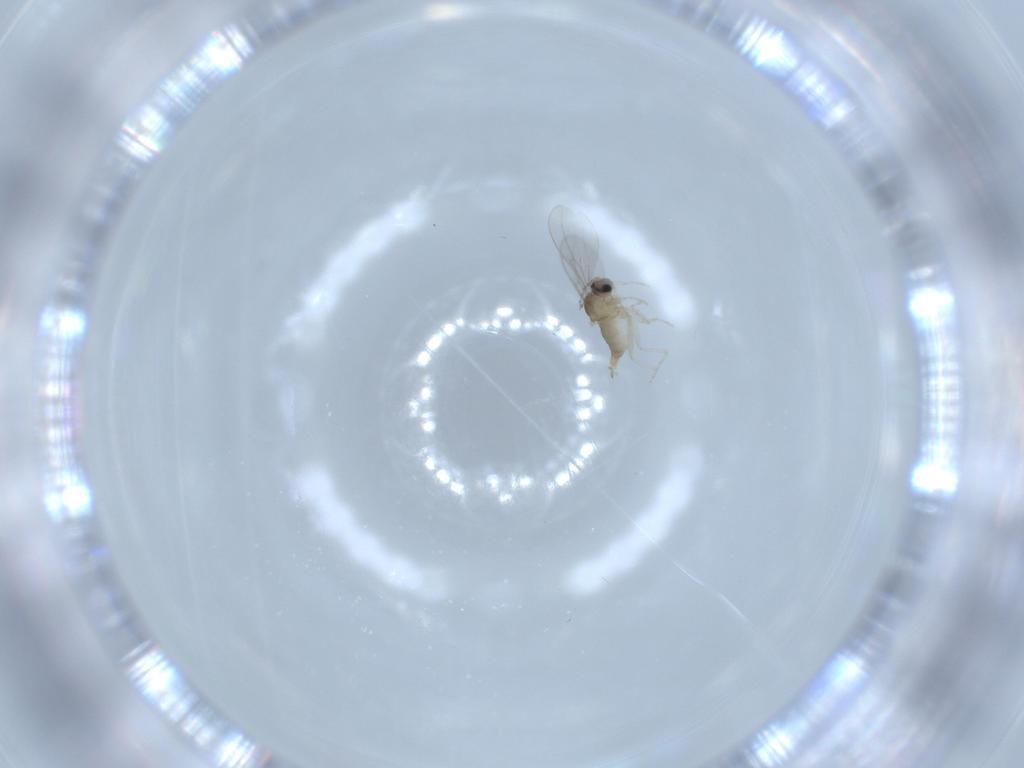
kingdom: Animalia
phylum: Arthropoda
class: Insecta
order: Diptera
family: Cecidomyiidae
